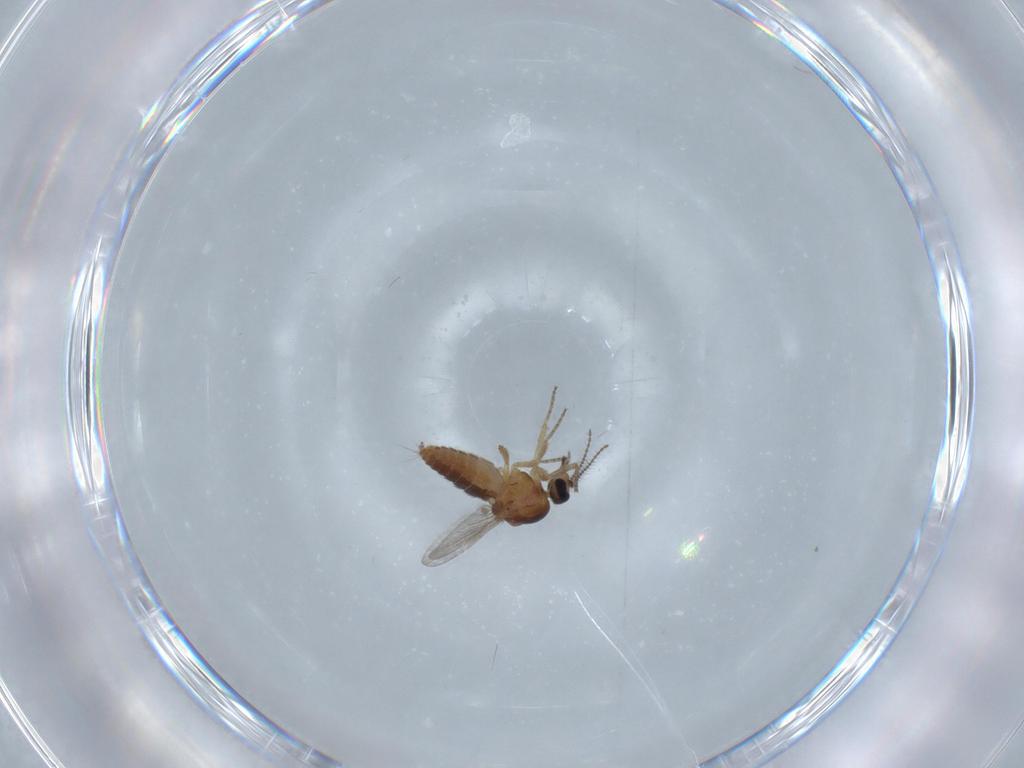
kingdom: Animalia
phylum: Arthropoda
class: Insecta
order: Diptera
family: Ceratopogonidae
